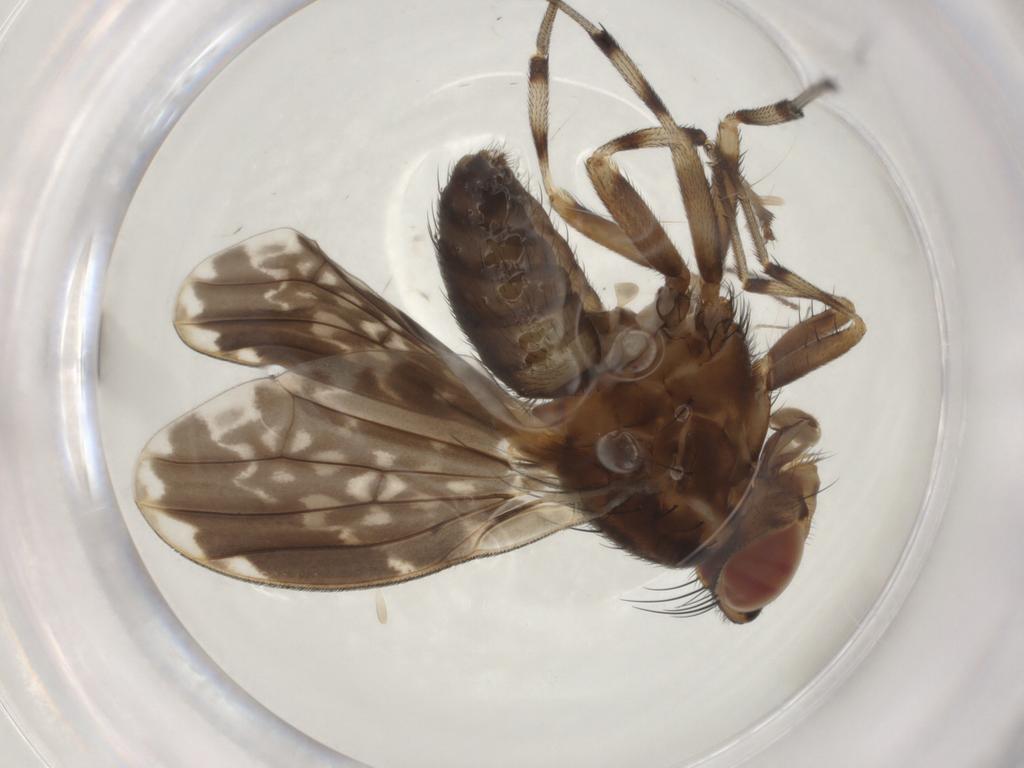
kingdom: Animalia
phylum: Arthropoda
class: Insecta
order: Diptera
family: Lauxaniidae
